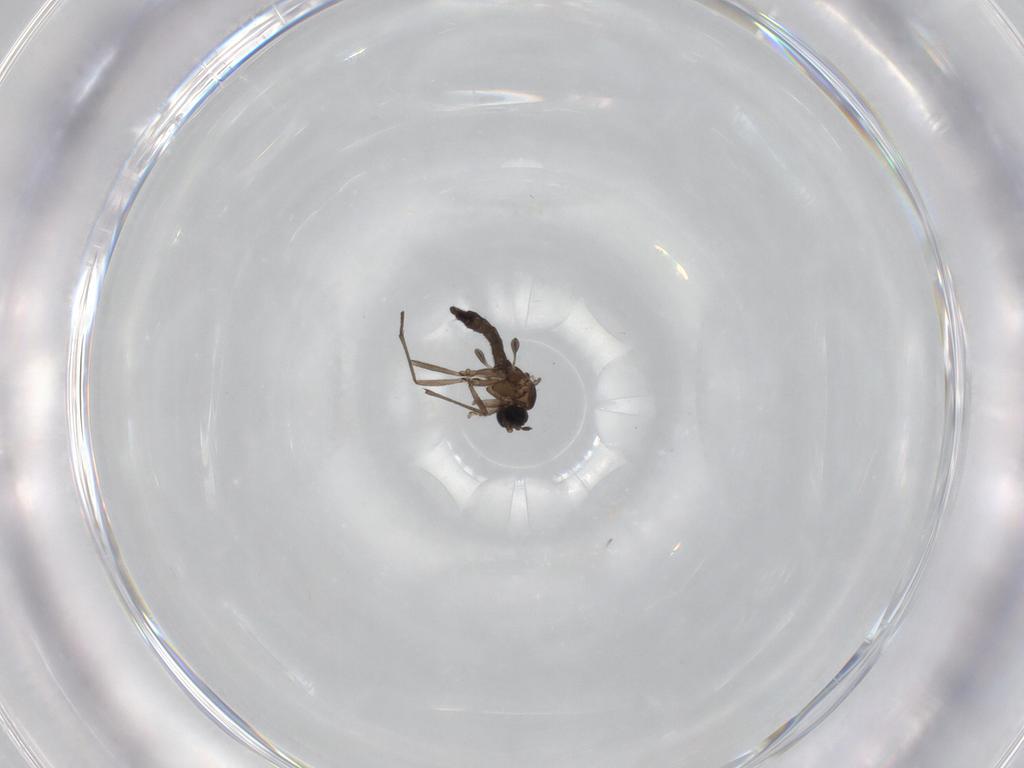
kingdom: Animalia
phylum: Arthropoda
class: Insecta
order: Diptera
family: Sciaridae
